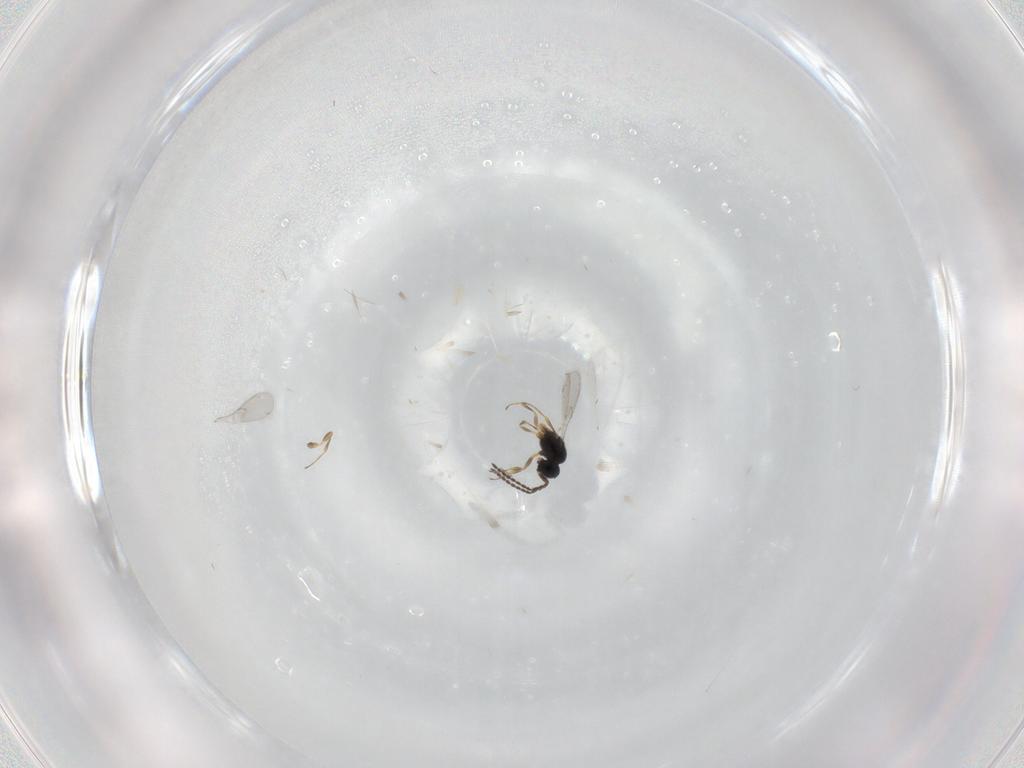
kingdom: Animalia
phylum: Arthropoda
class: Insecta
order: Hymenoptera
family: Scelionidae
